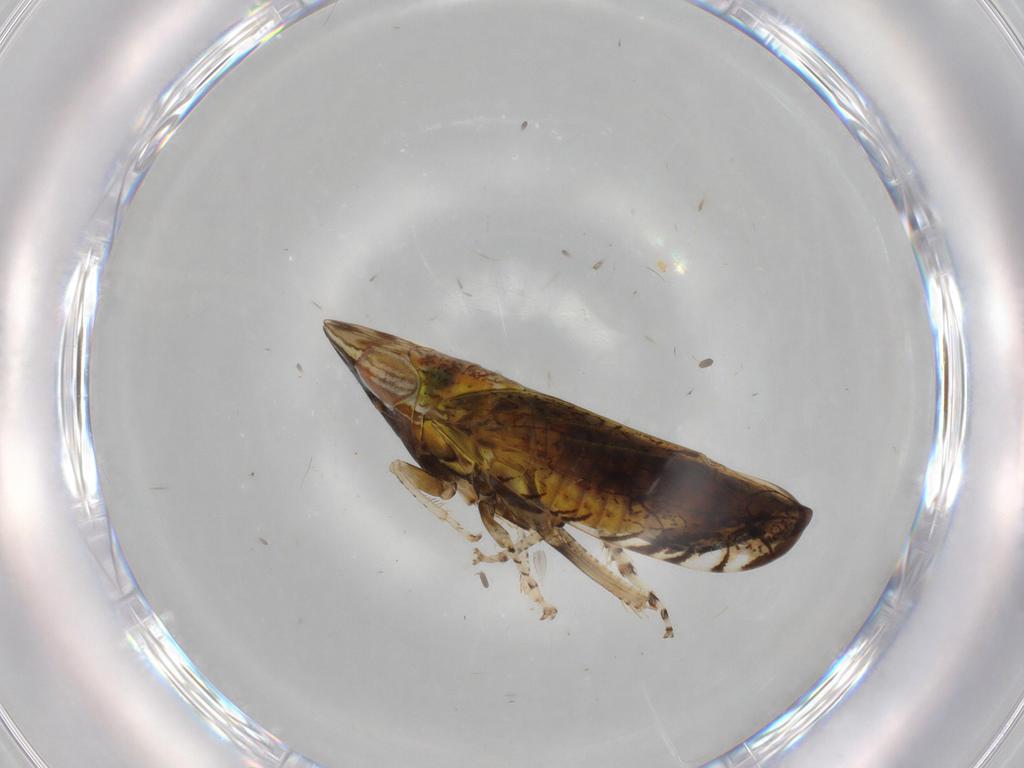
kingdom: Animalia
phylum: Arthropoda
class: Insecta
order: Hemiptera
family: Cicadellidae
